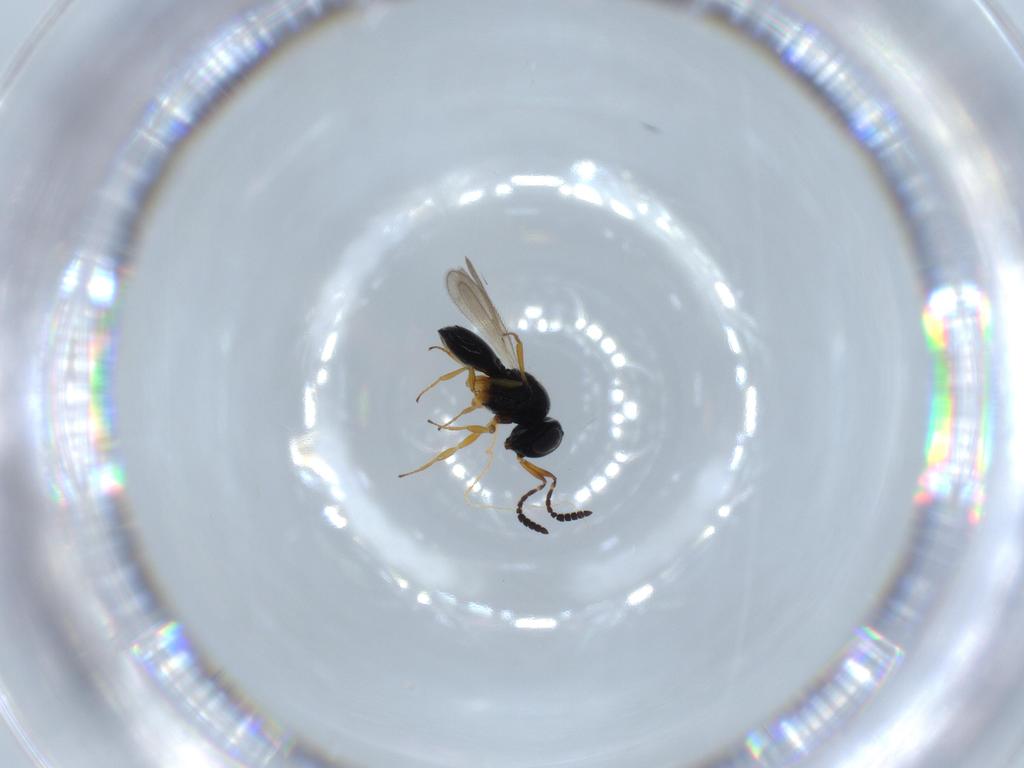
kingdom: Animalia
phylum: Arthropoda
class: Insecta
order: Hymenoptera
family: Scelionidae
